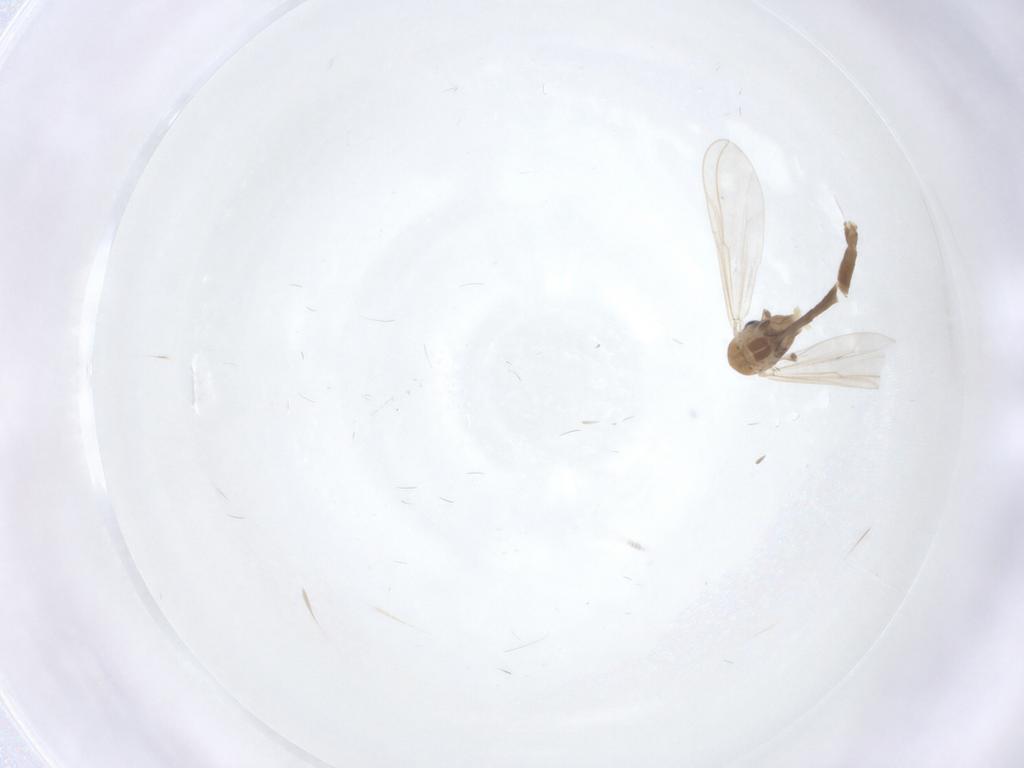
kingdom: Animalia
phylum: Arthropoda
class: Insecta
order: Diptera
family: Chironomidae
